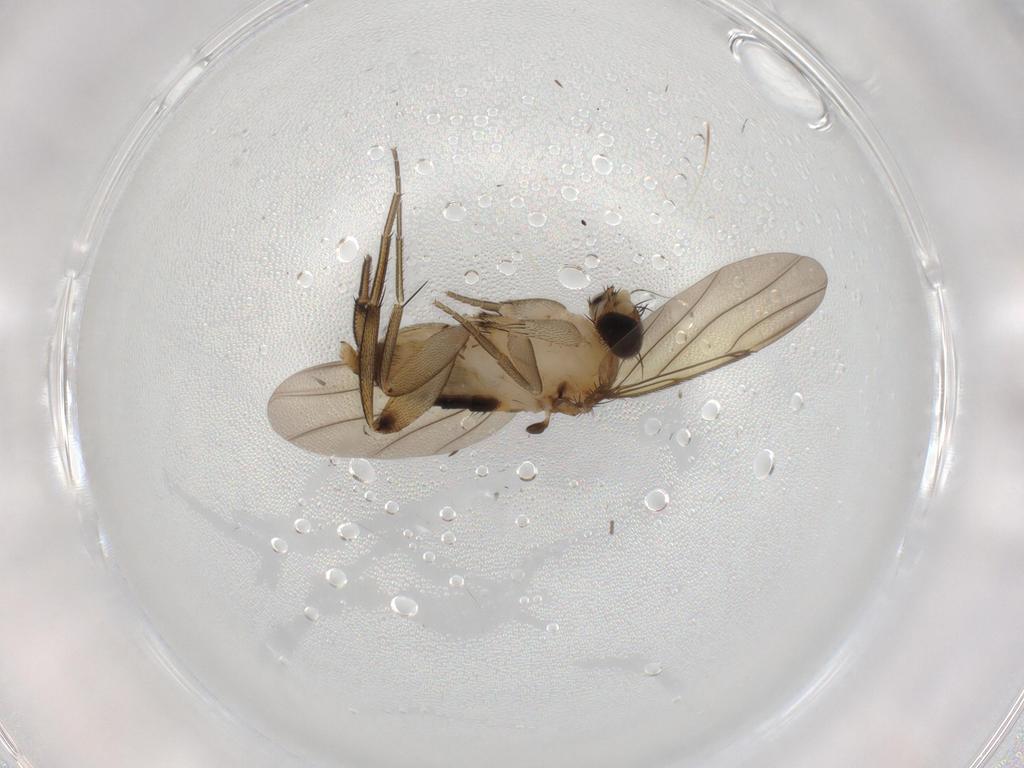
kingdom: Animalia
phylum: Arthropoda
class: Insecta
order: Diptera
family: Phoridae
